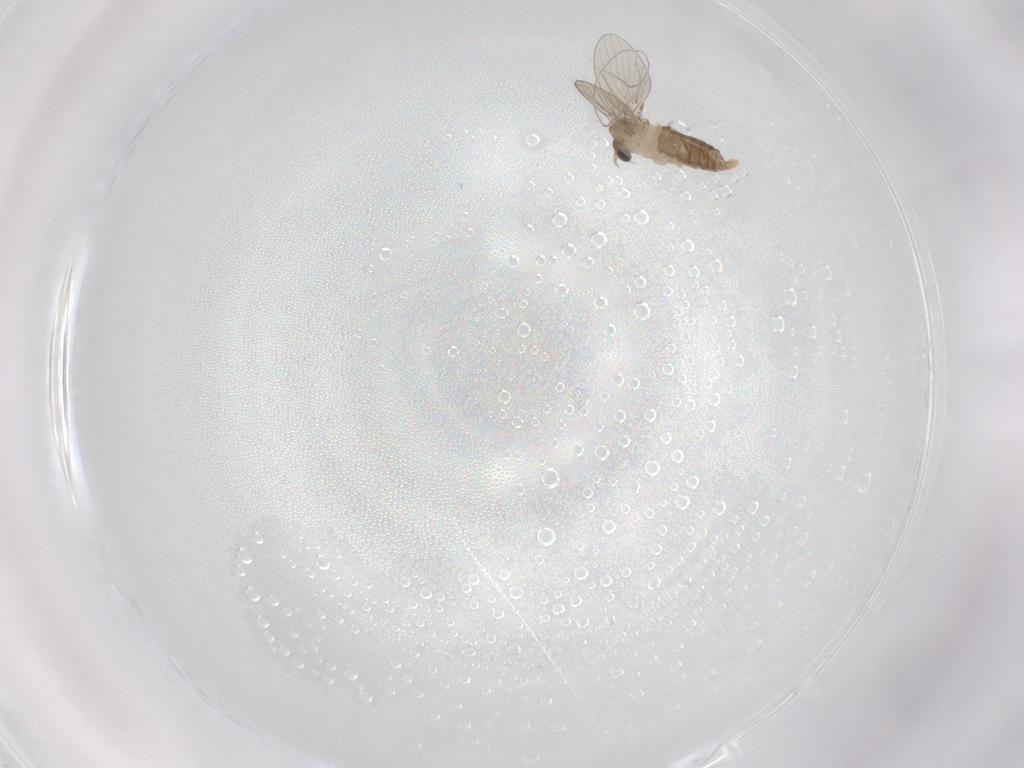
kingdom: Animalia
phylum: Arthropoda
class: Insecta
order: Diptera
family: Psychodidae
